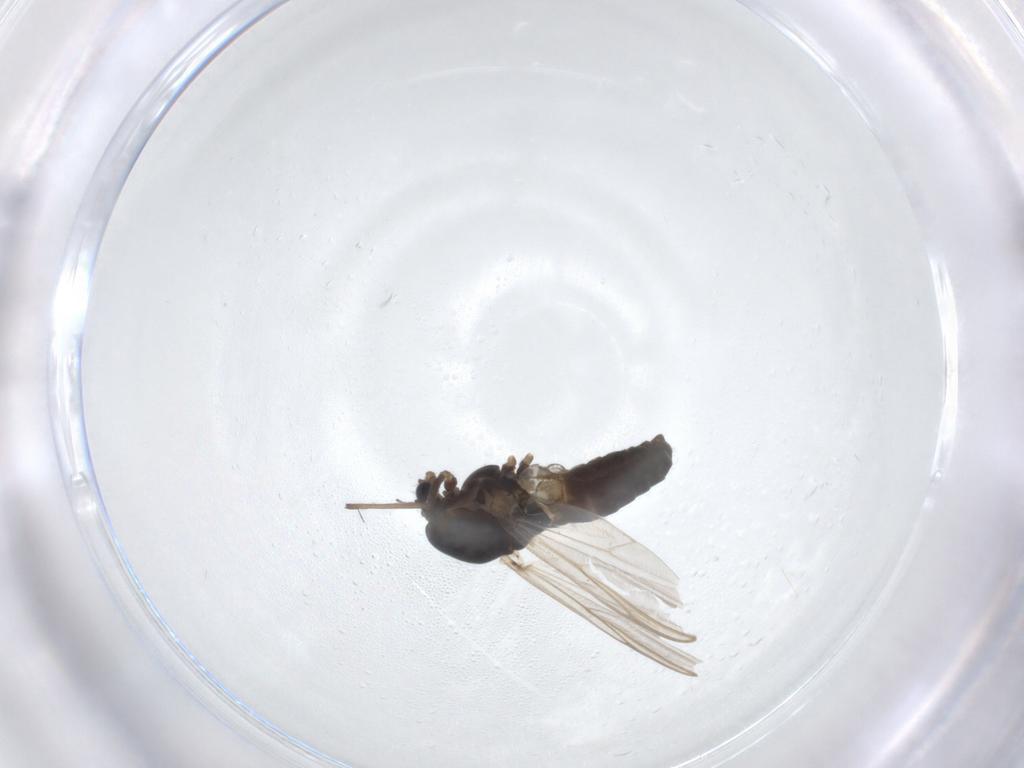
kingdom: Animalia
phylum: Arthropoda
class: Insecta
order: Diptera
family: Chironomidae
